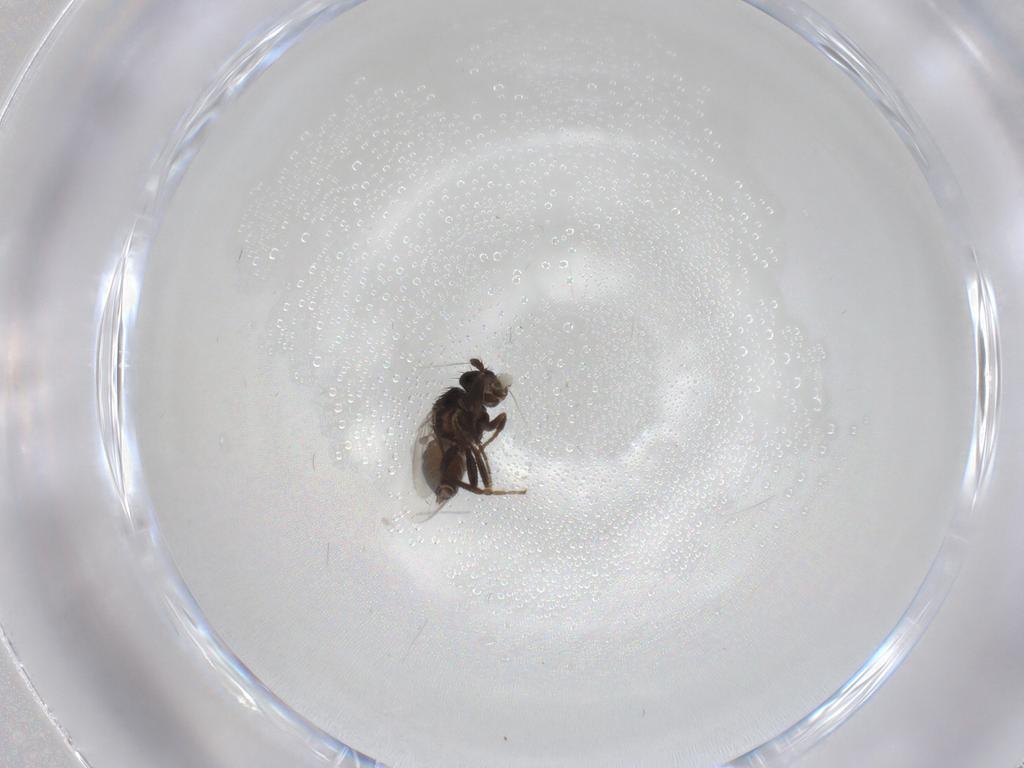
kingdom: Animalia
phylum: Arthropoda
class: Insecta
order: Diptera
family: Sphaeroceridae
